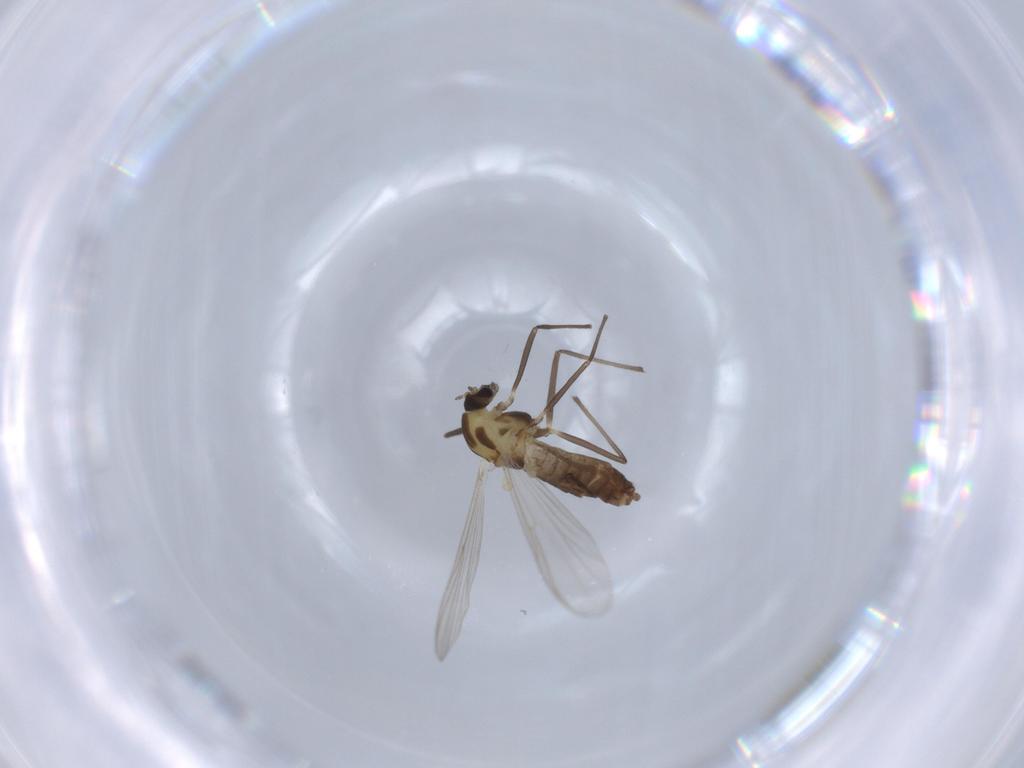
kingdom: Animalia
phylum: Arthropoda
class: Insecta
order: Diptera
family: Chironomidae
